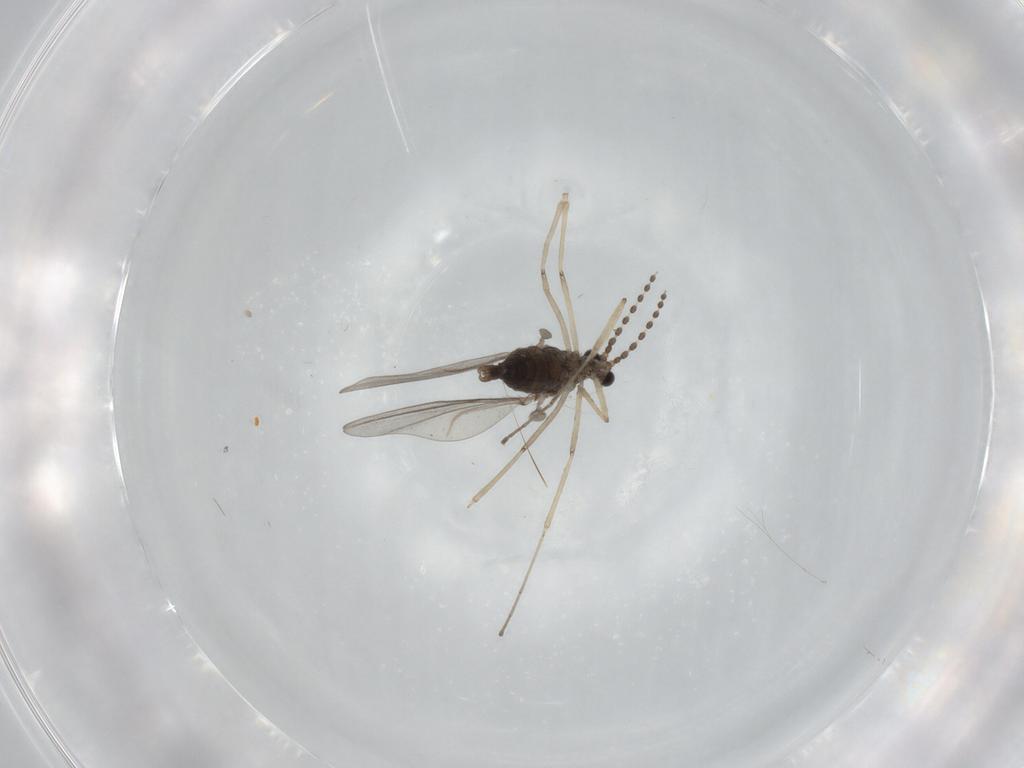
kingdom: Animalia
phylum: Arthropoda
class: Insecta
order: Diptera
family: Cecidomyiidae
